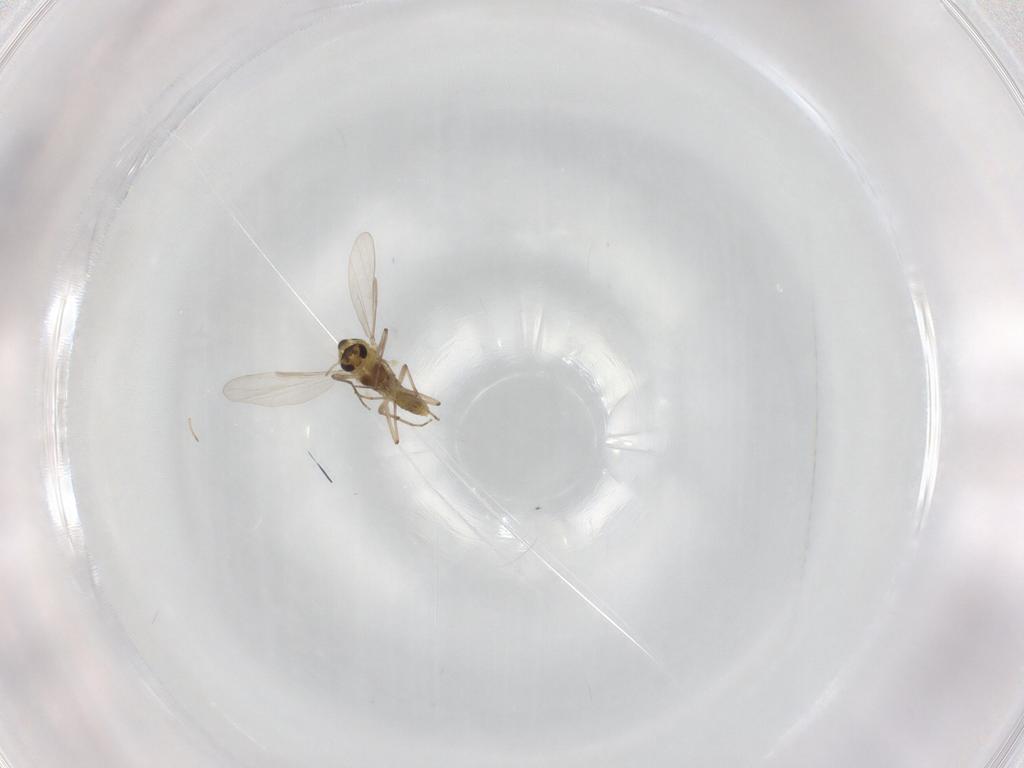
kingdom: Animalia
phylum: Arthropoda
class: Insecta
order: Diptera
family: Chironomidae
